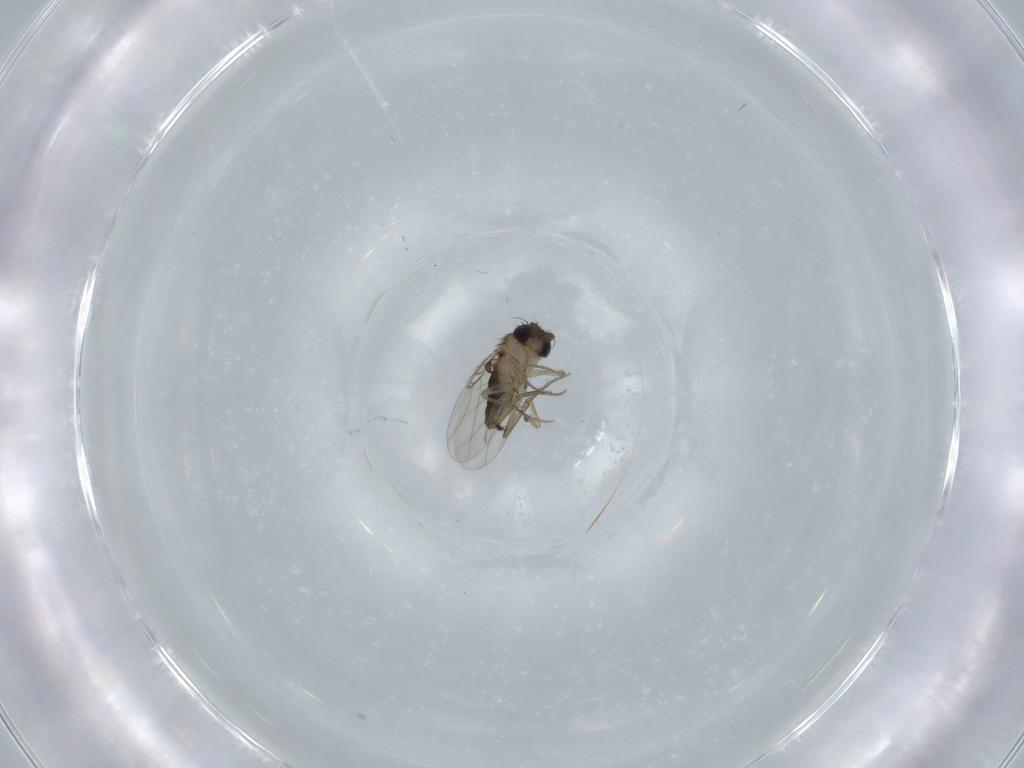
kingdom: Animalia
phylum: Arthropoda
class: Insecta
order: Diptera
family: Phoridae
